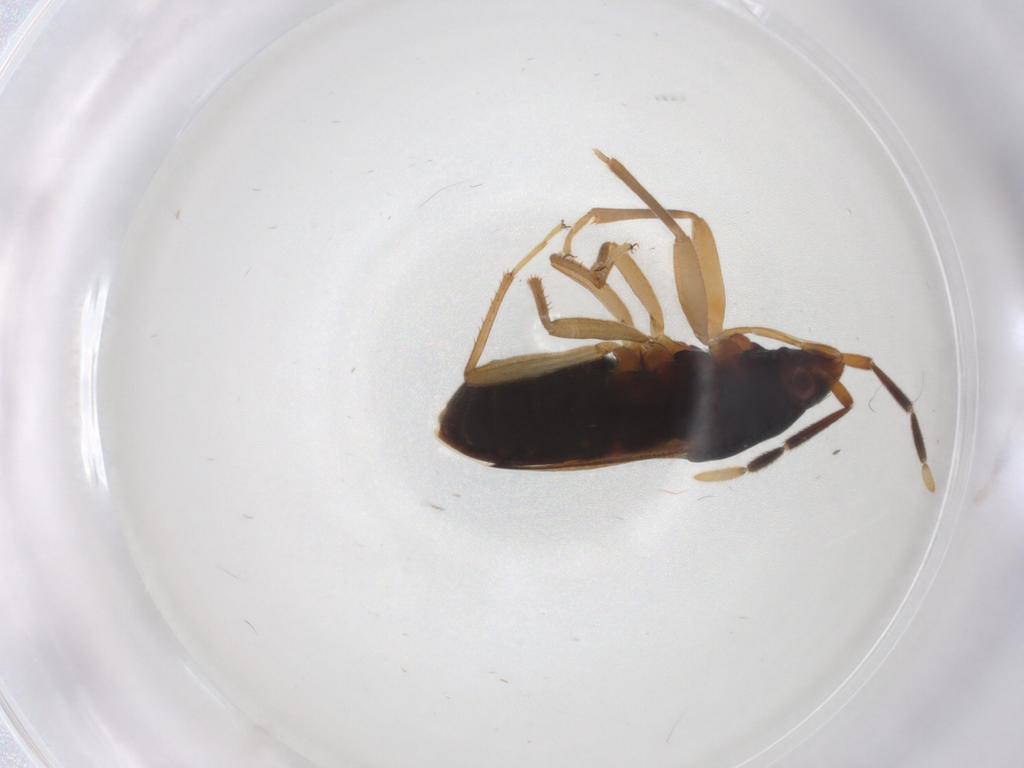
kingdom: Animalia
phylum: Arthropoda
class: Insecta
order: Hemiptera
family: Rhyparochromidae
